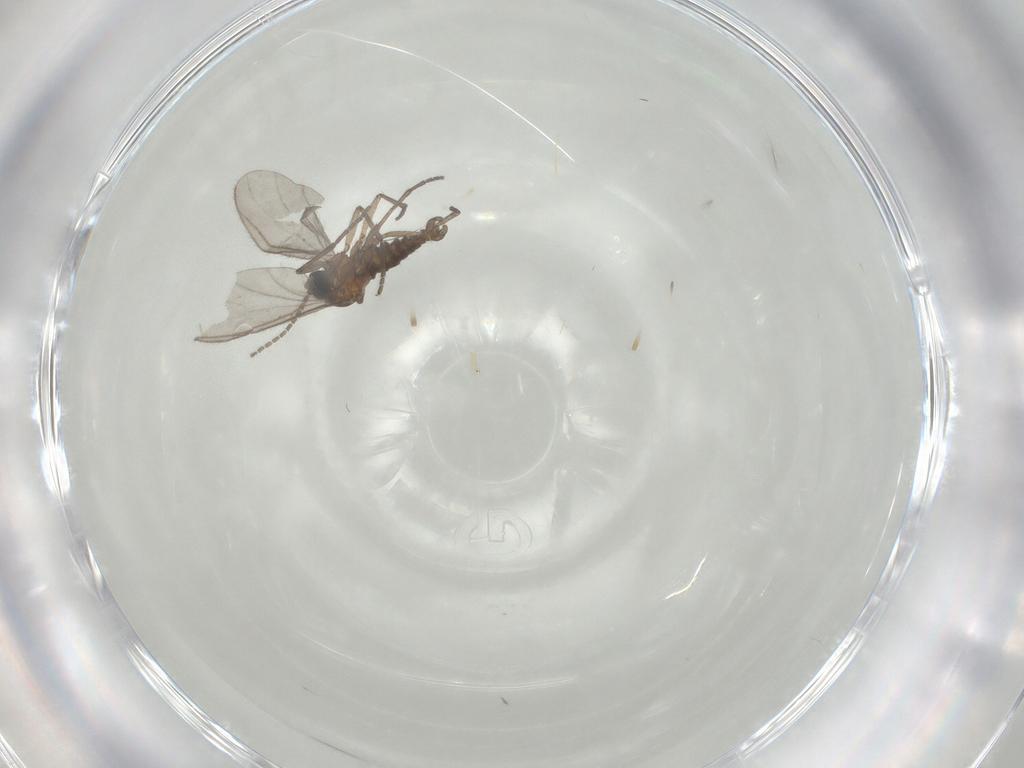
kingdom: Animalia
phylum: Arthropoda
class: Insecta
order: Diptera
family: Sciaridae
